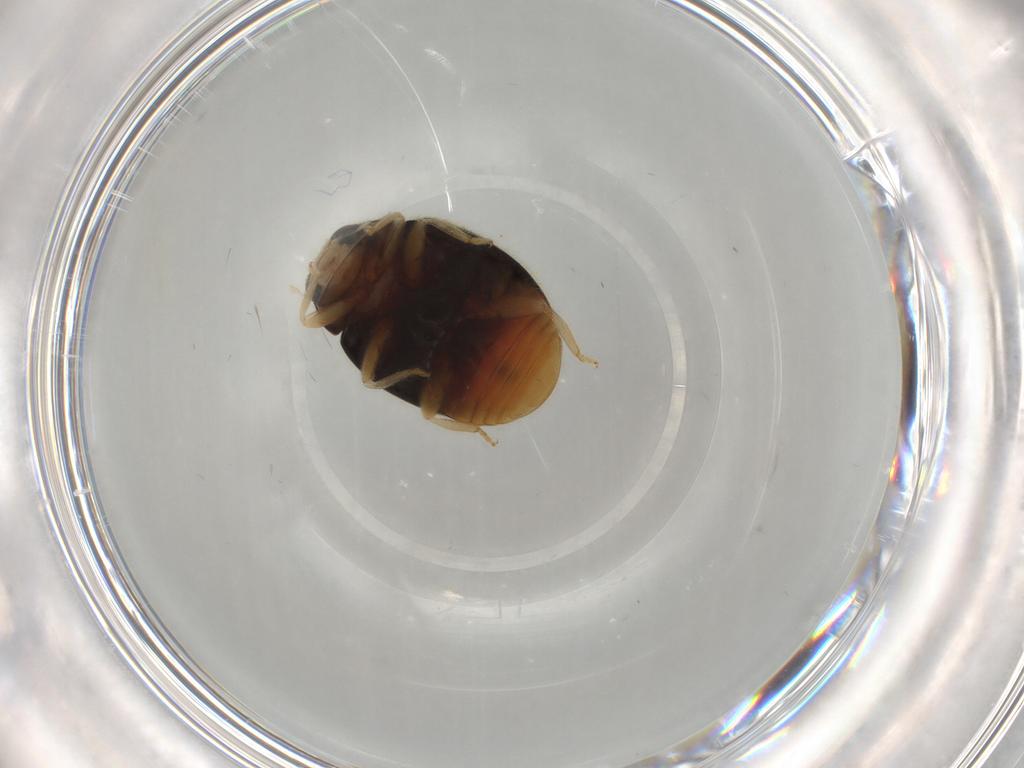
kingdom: Animalia
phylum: Arthropoda
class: Insecta
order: Coleoptera
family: Coccinellidae
